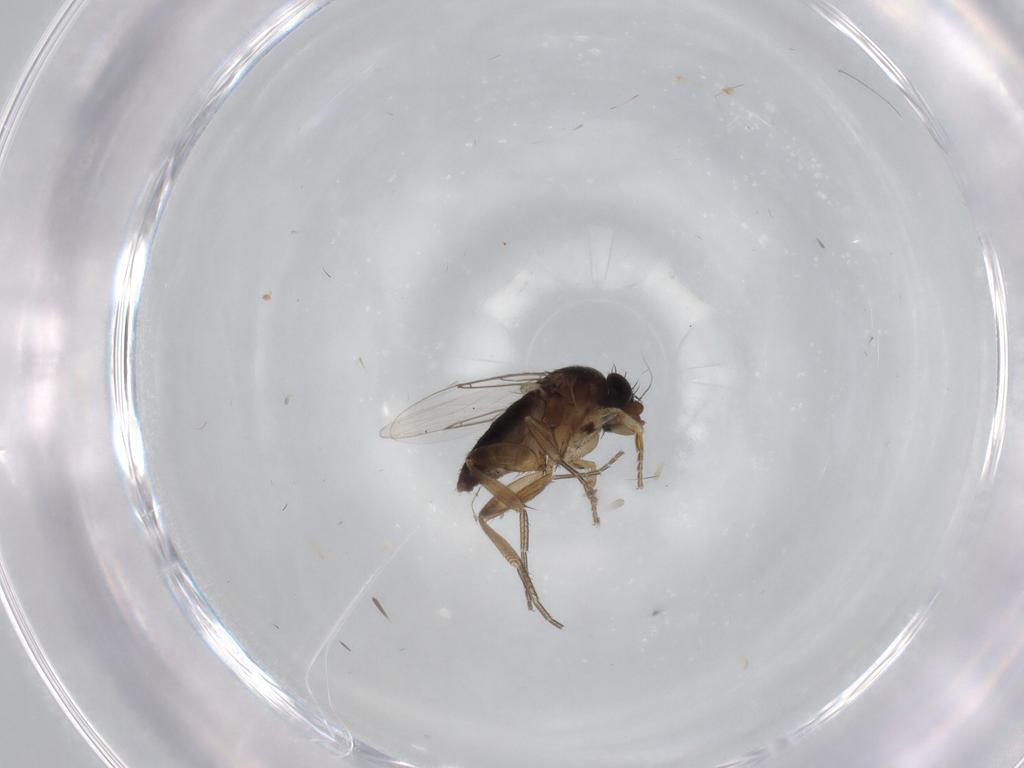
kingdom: Animalia
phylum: Arthropoda
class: Insecta
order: Diptera
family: Phoridae
